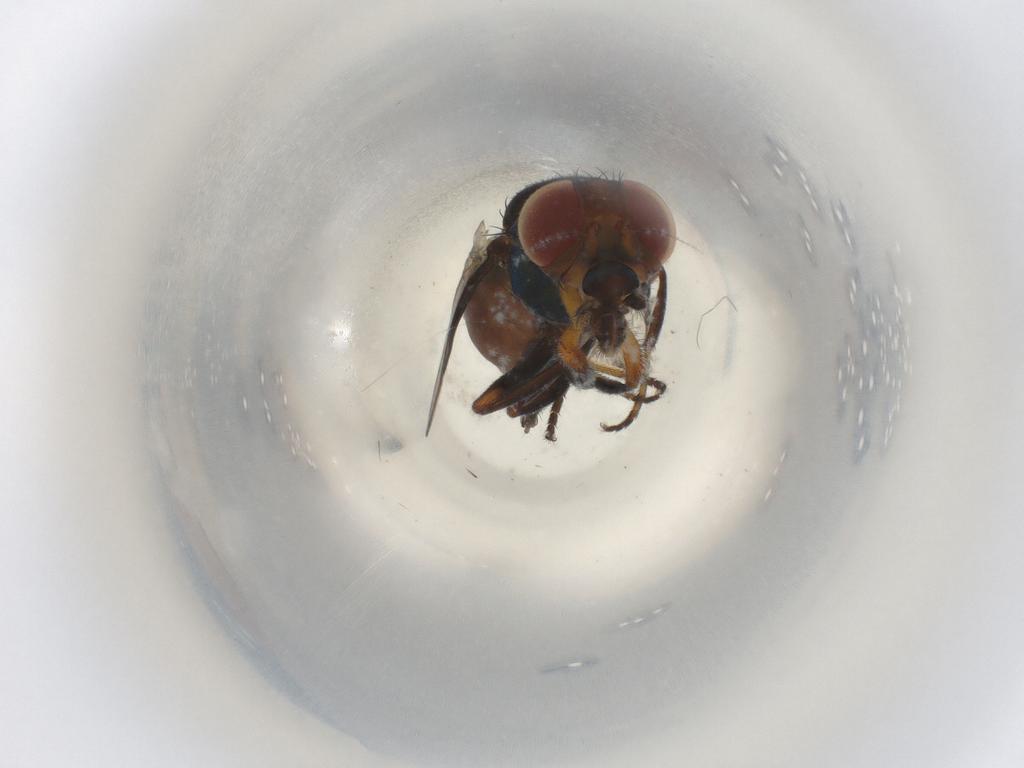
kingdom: Animalia
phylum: Arthropoda
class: Insecta
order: Diptera
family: Ulidiidae
